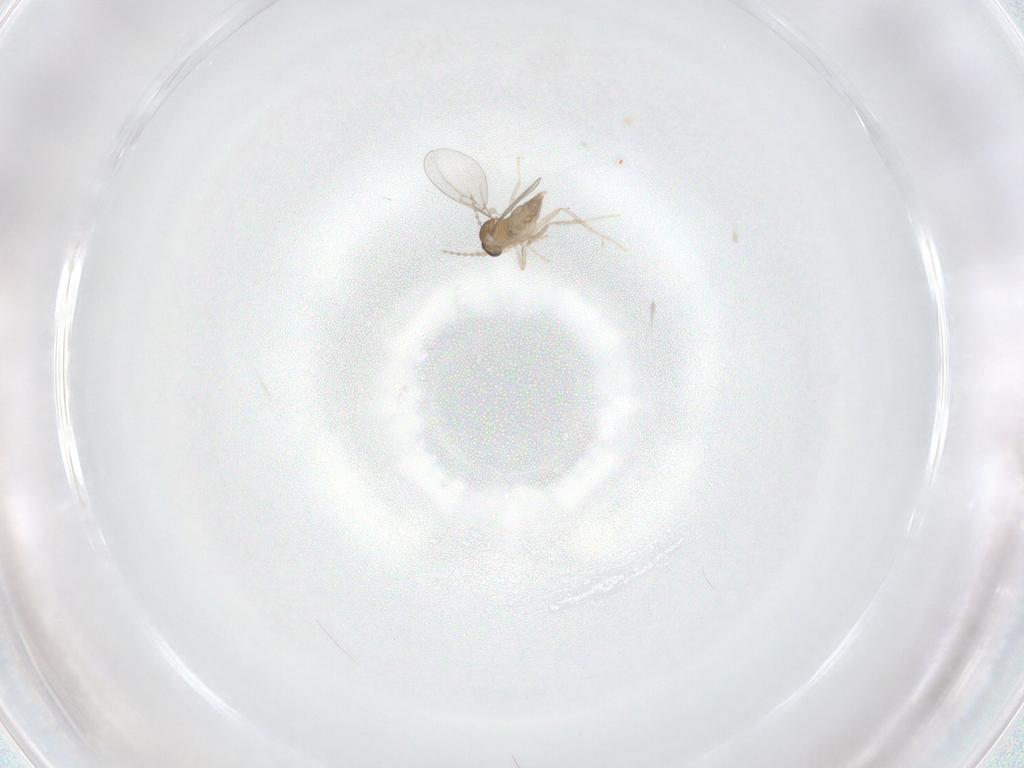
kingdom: Animalia
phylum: Arthropoda
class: Insecta
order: Diptera
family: Cecidomyiidae
